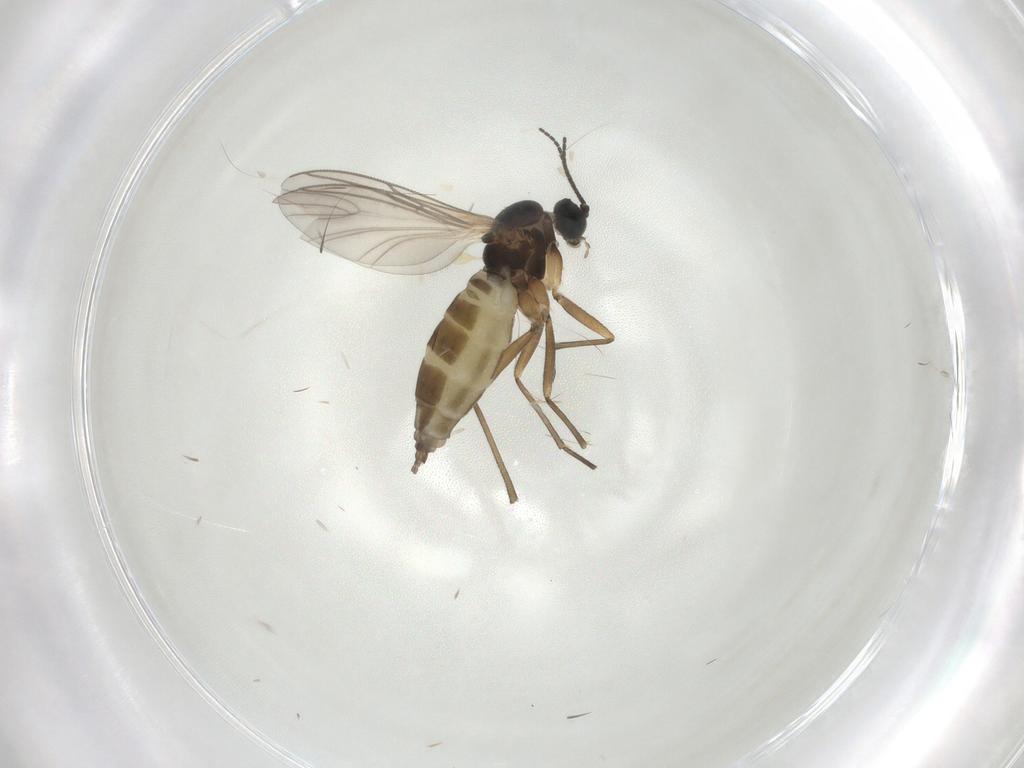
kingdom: Animalia
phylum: Arthropoda
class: Insecta
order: Diptera
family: Sciaridae
